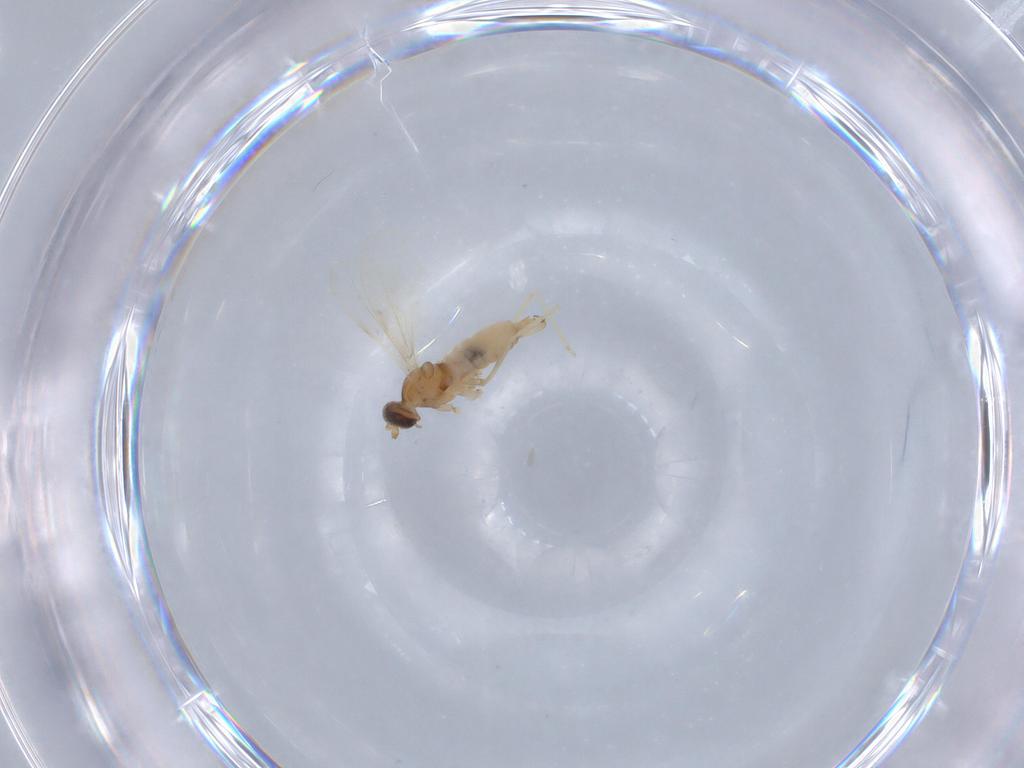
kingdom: Animalia
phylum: Arthropoda
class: Insecta
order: Diptera
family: Cecidomyiidae
